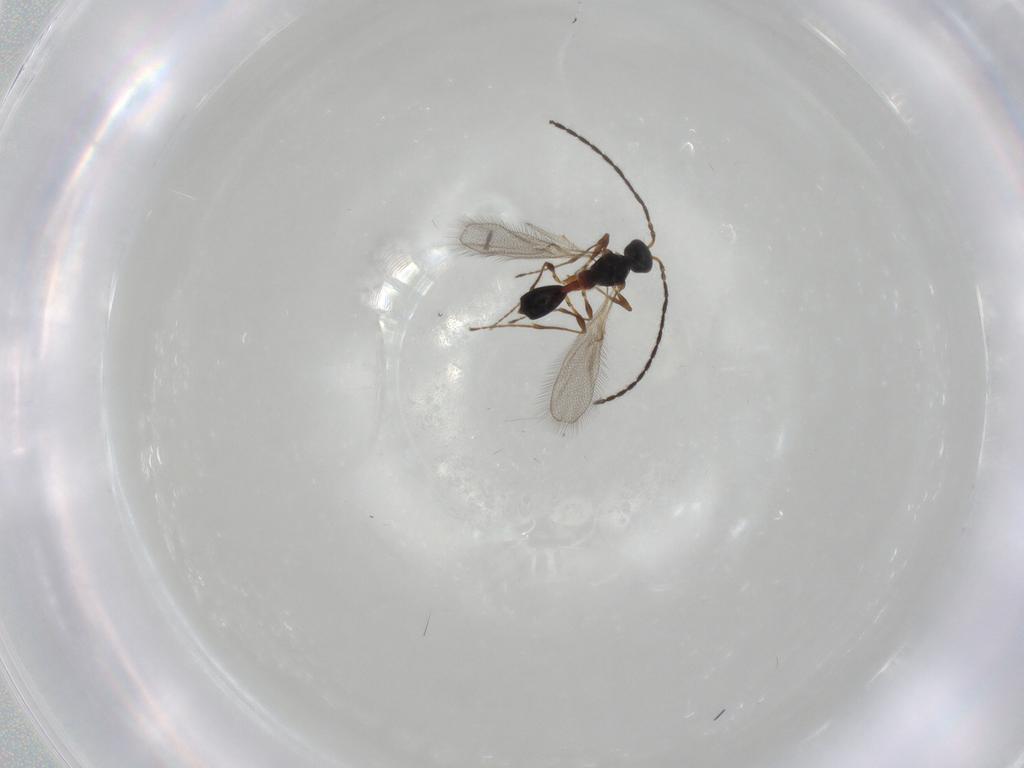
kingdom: Animalia
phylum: Arthropoda
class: Insecta
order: Hymenoptera
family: Diapriidae
